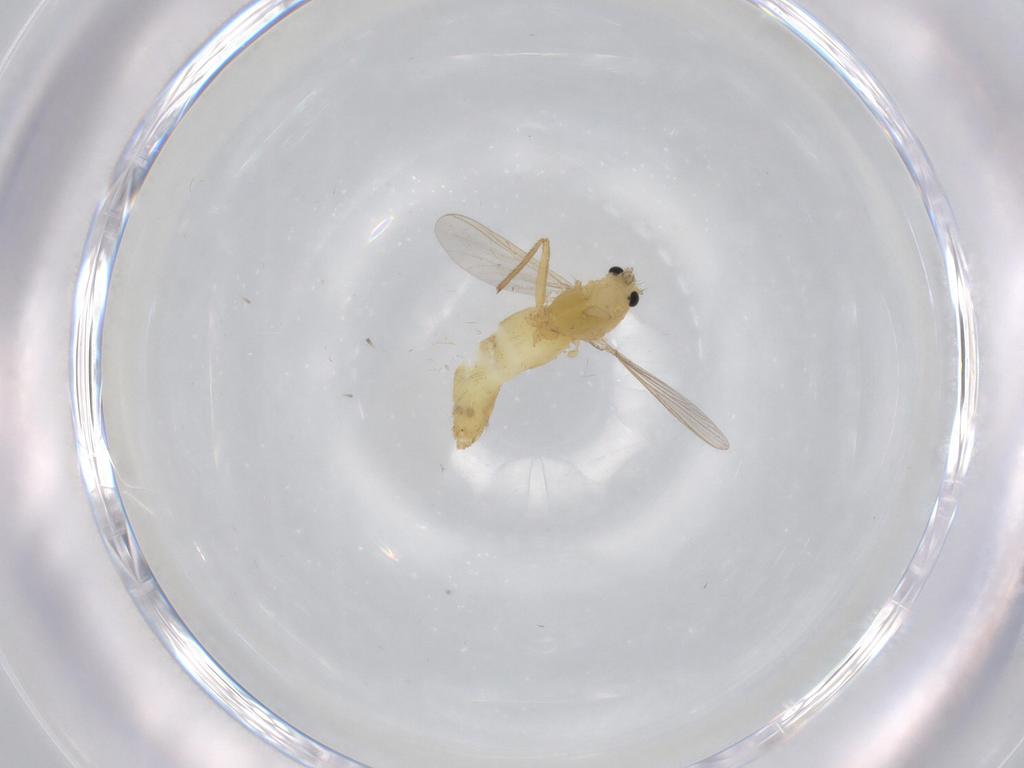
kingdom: Animalia
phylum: Arthropoda
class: Insecta
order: Diptera
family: Chironomidae
